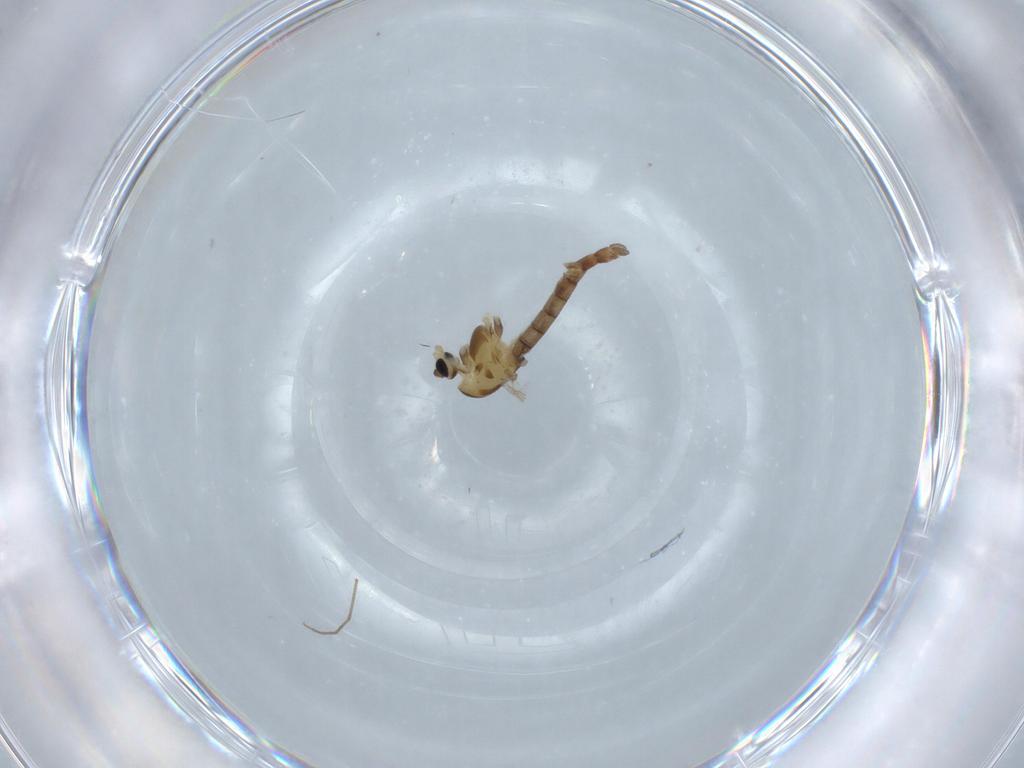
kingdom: Animalia
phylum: Arthropoda
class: Insecta
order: Diptera
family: Chironomidae
